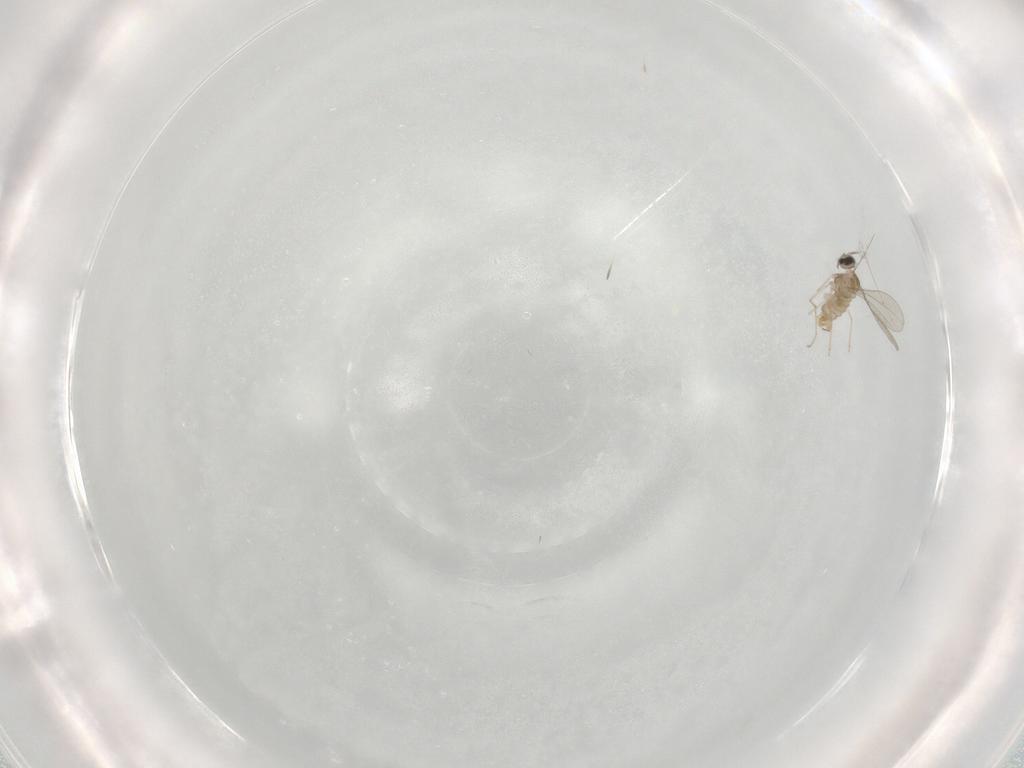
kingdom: Animalia
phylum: Arthropoda
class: Insecta
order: Diptera
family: Cecidomyiidae
